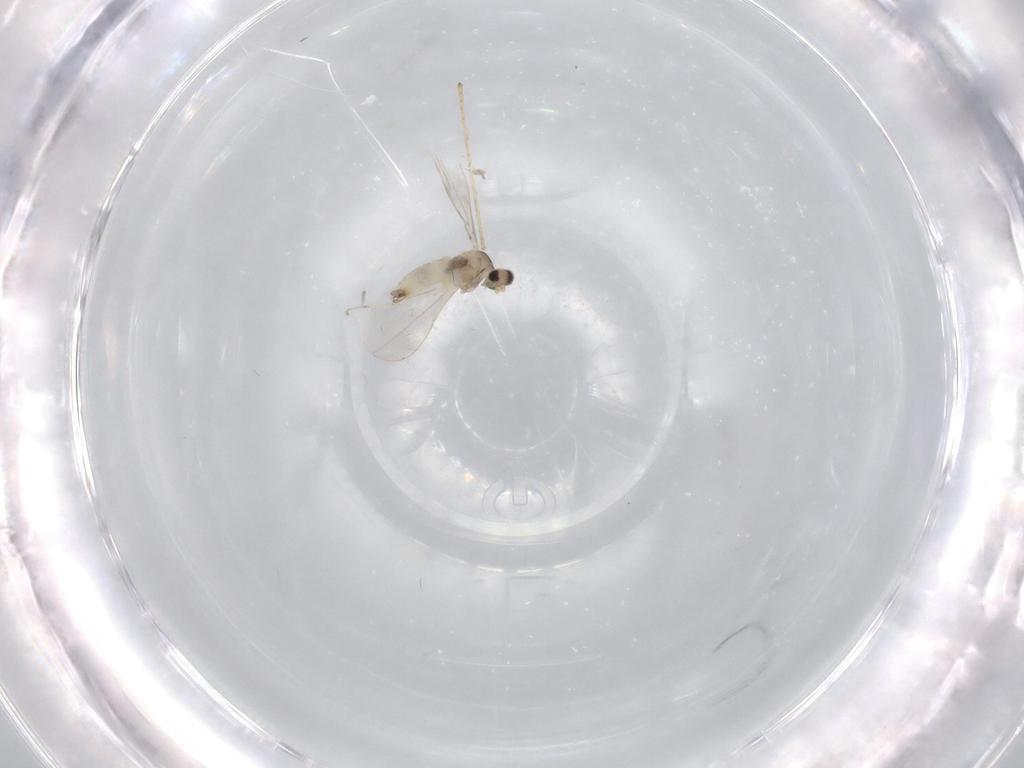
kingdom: Animalia
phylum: Arthropoda
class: Insecta
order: Diptera
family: Limoniidae
